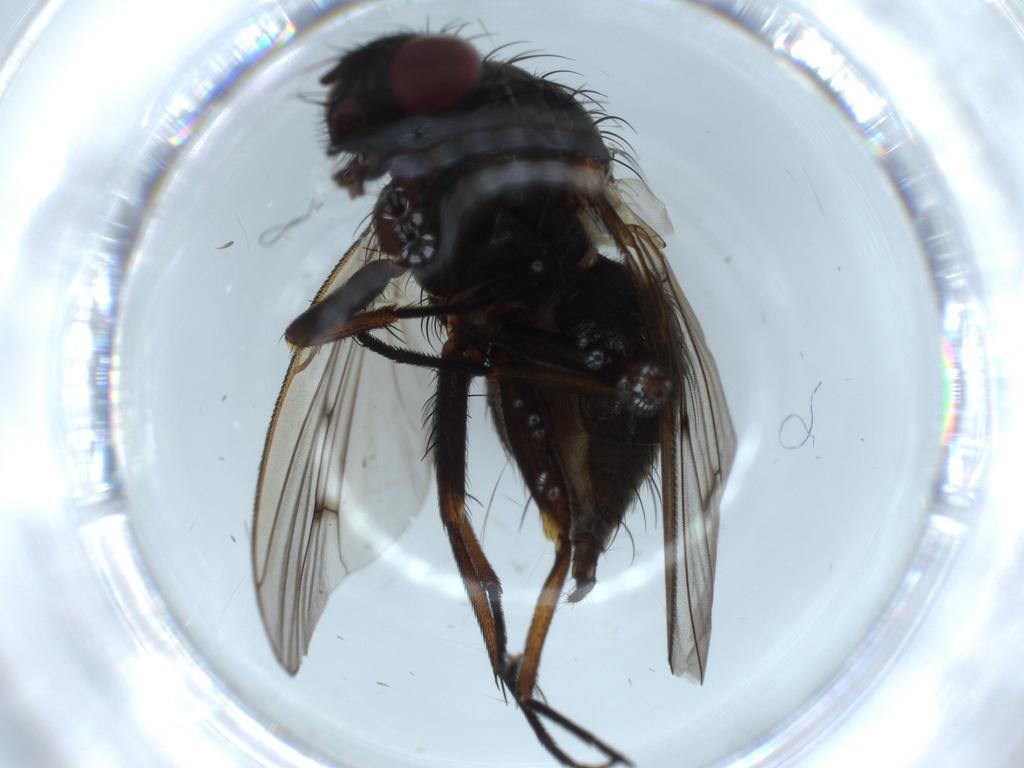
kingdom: Animalia
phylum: Arthropoda
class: Insecta
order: Diptera
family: Muscidae
